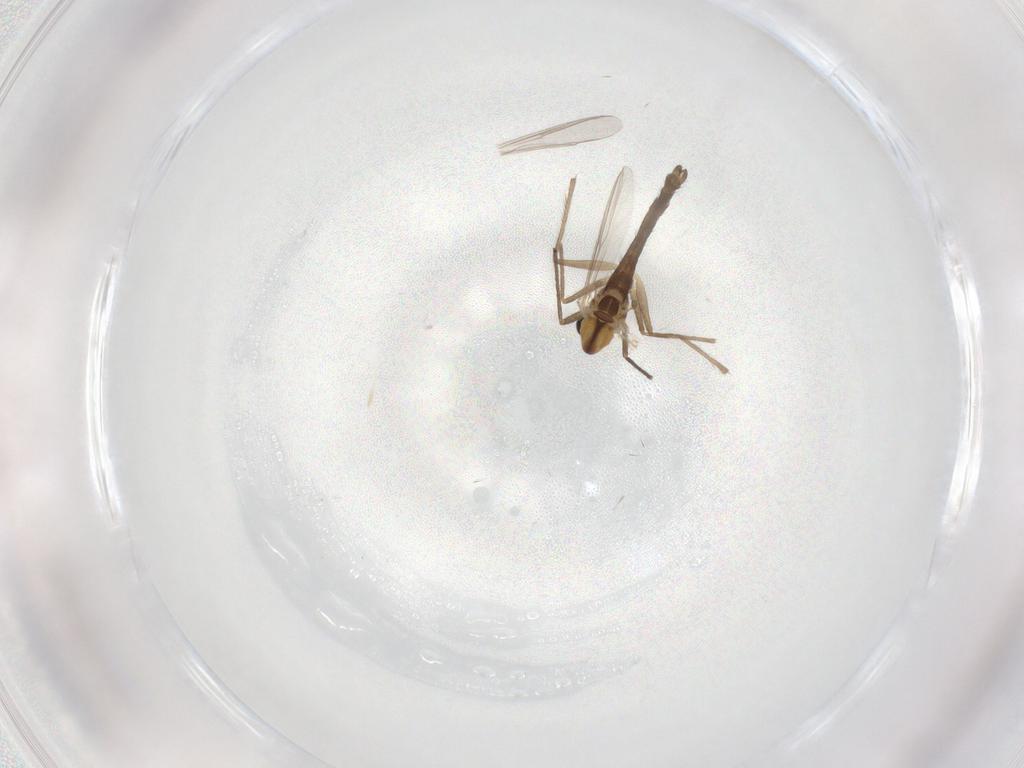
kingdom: Animalia
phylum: Arthropoda
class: Insecta
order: Diptera
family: Chironomidae
